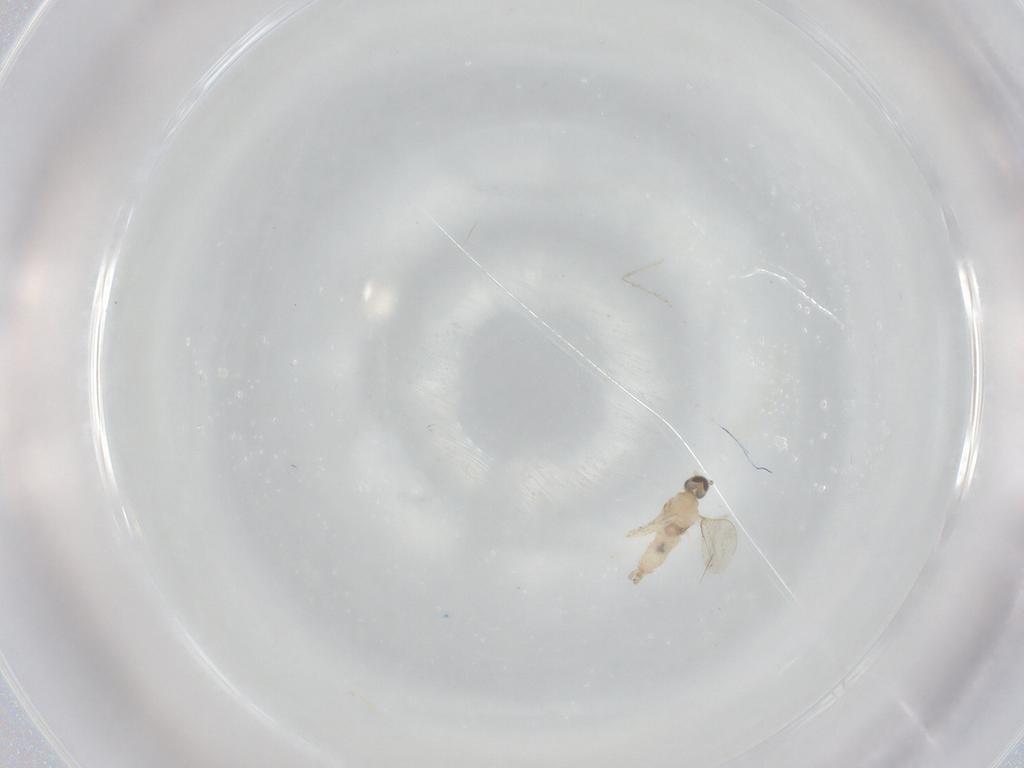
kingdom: Animalia
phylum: Arthropoda
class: Insecta
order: Diptera
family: Cecidomyiidae
